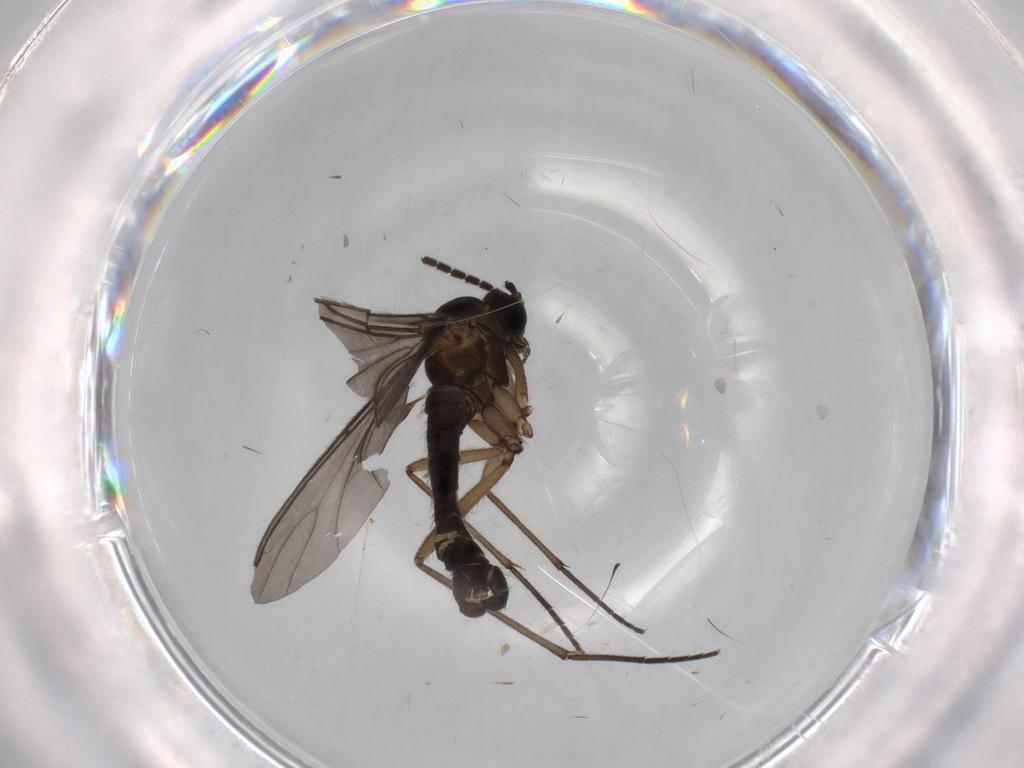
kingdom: Animalia
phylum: Arthropoda
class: Insecta
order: Diptera
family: Sciaridae
